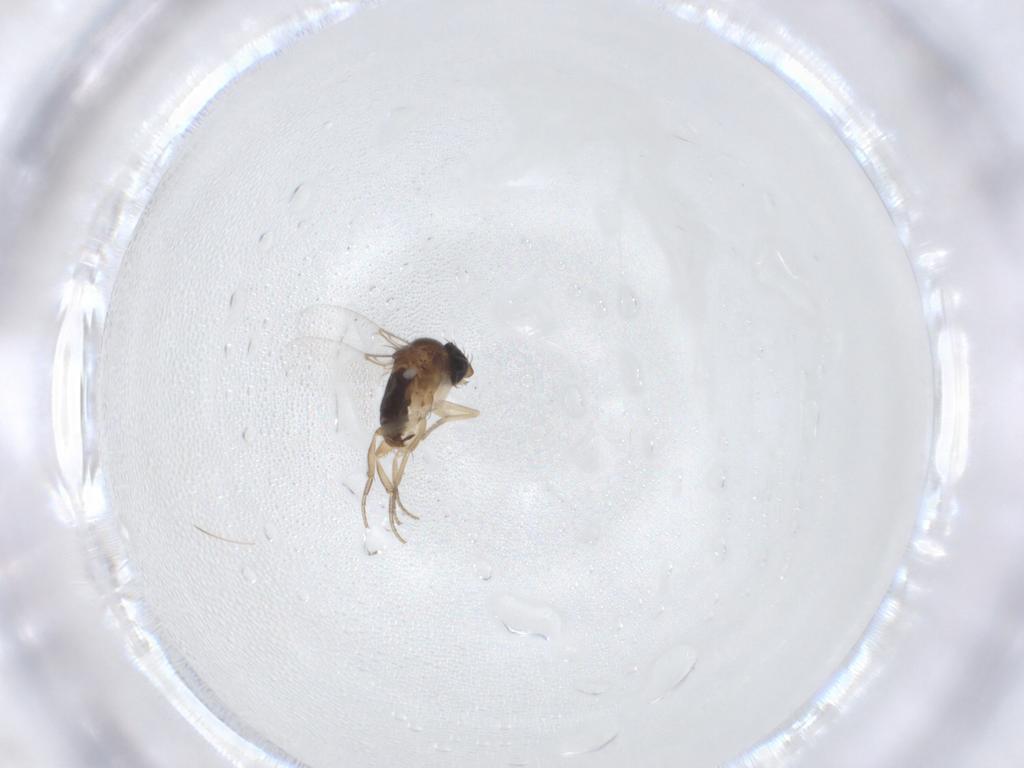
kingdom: Animalia
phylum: Arthropoda
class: Insecta
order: Diptera
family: Phoridae
